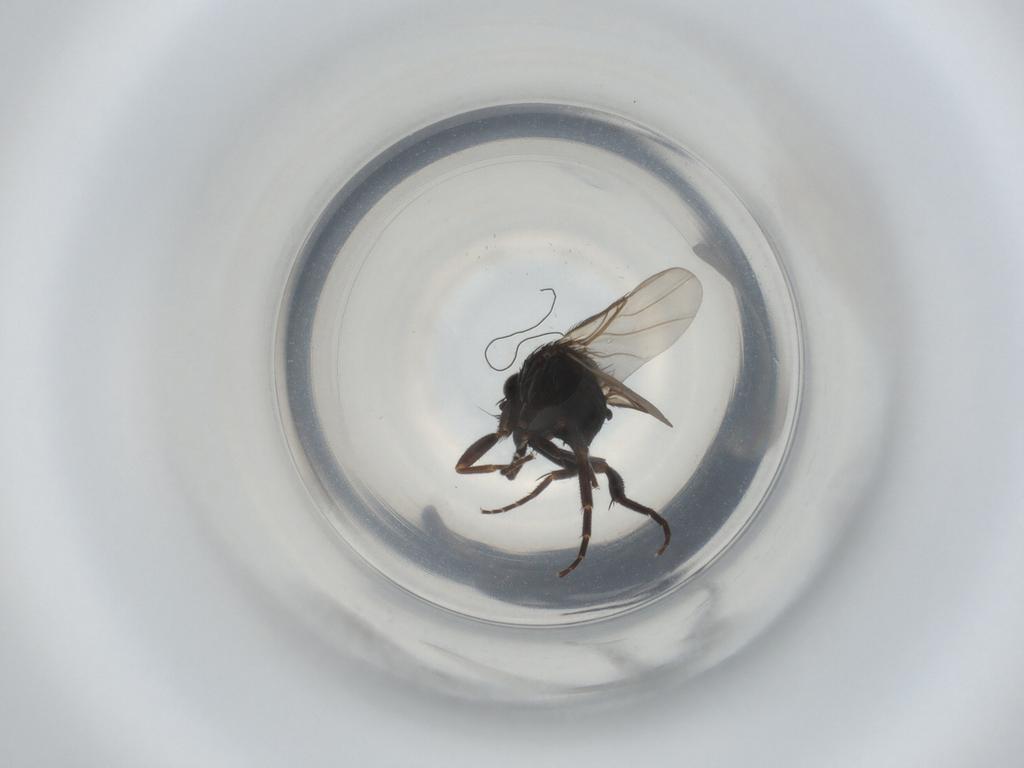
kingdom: Animalia
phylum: Arthropoda
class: Insecta
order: Diptera
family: Phoridae
